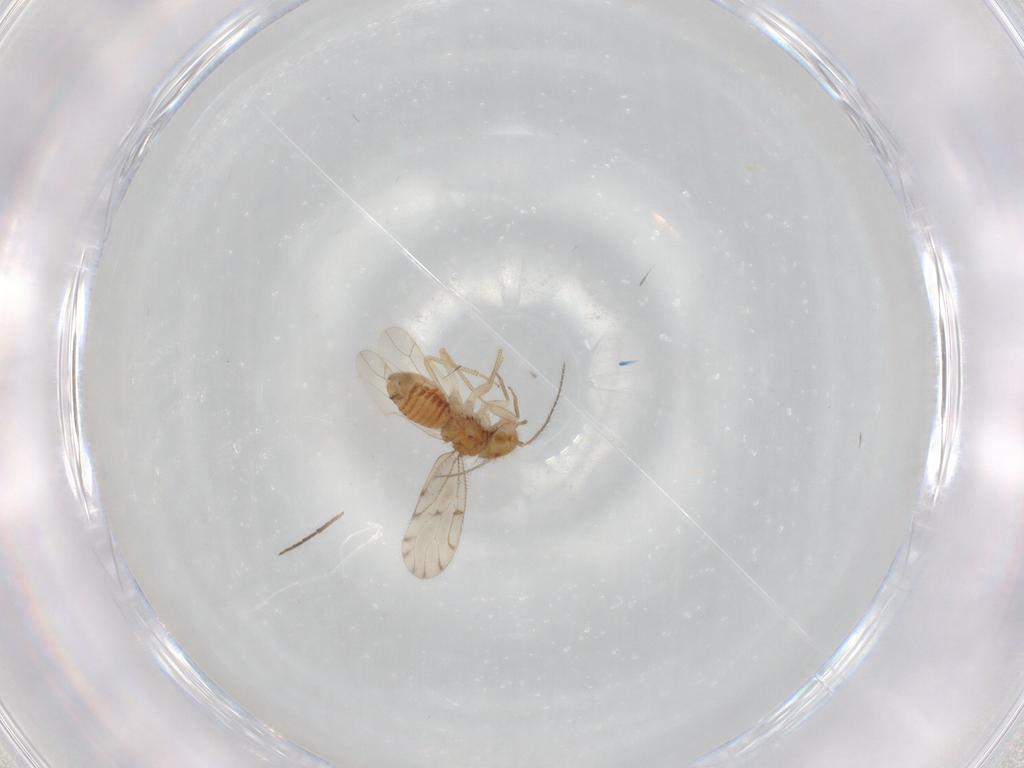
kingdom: Animalia
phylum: Arthropoda
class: Insecta
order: Psocodea
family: Ectopsocidae
